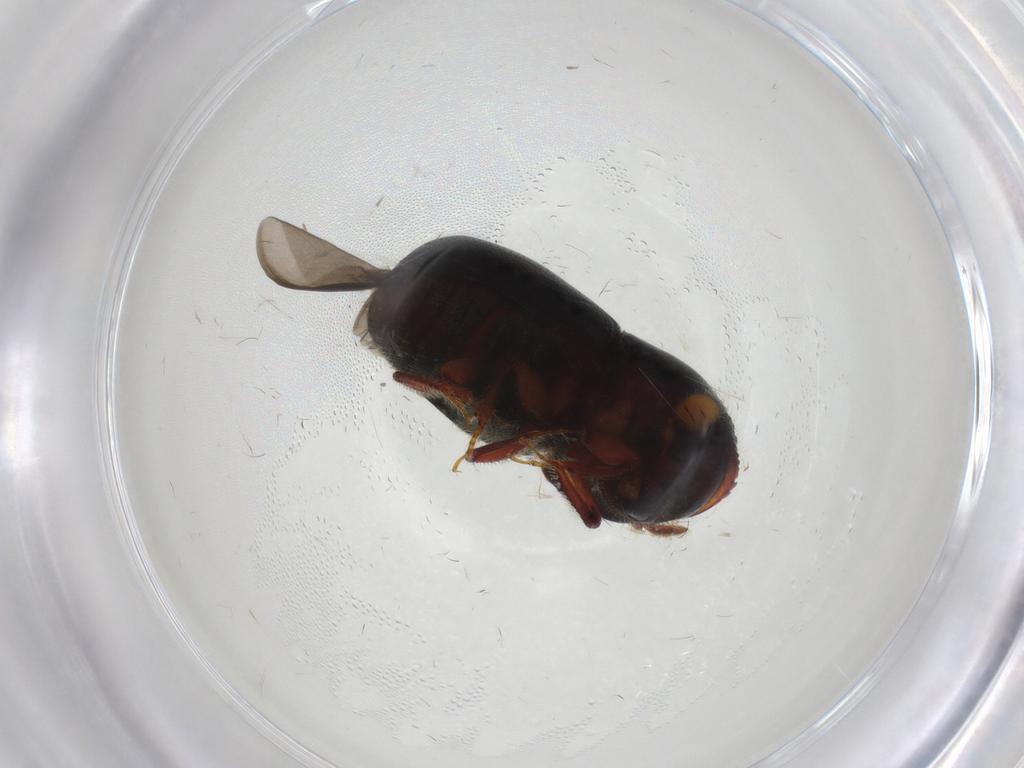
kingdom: Animalia
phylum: Arthropoda
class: Insecta
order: Coleoptera
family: Curculionidae
